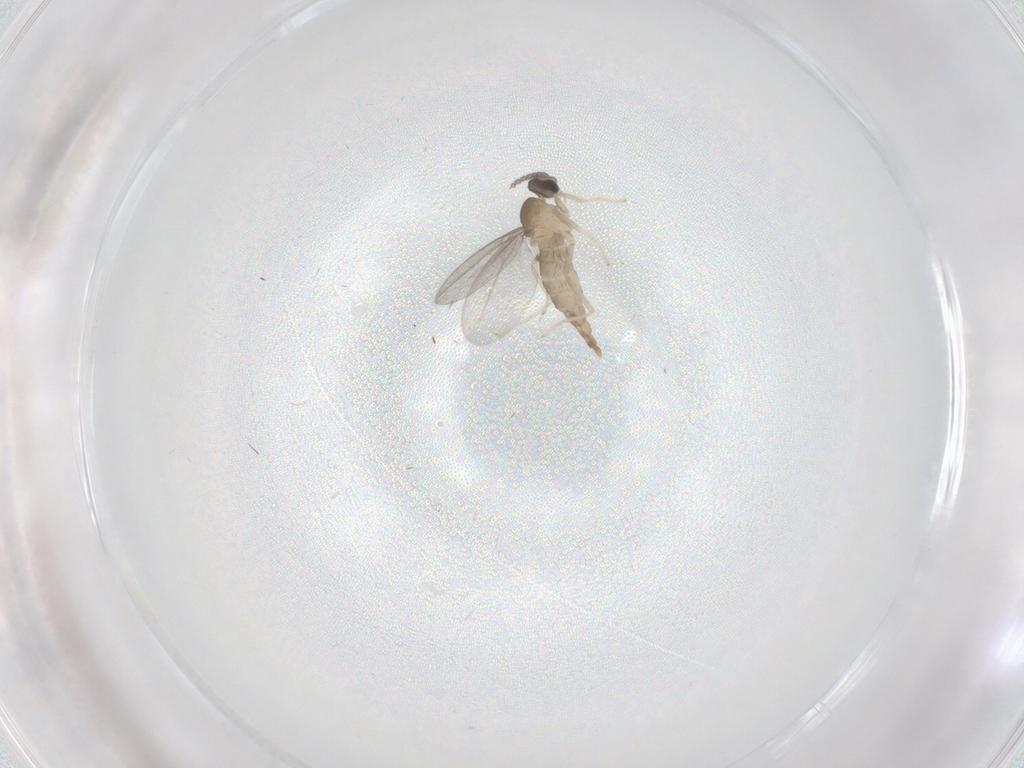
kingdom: Animalia
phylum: Arthropoda
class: Insecta
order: Diptera
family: Cecidomyiidae
